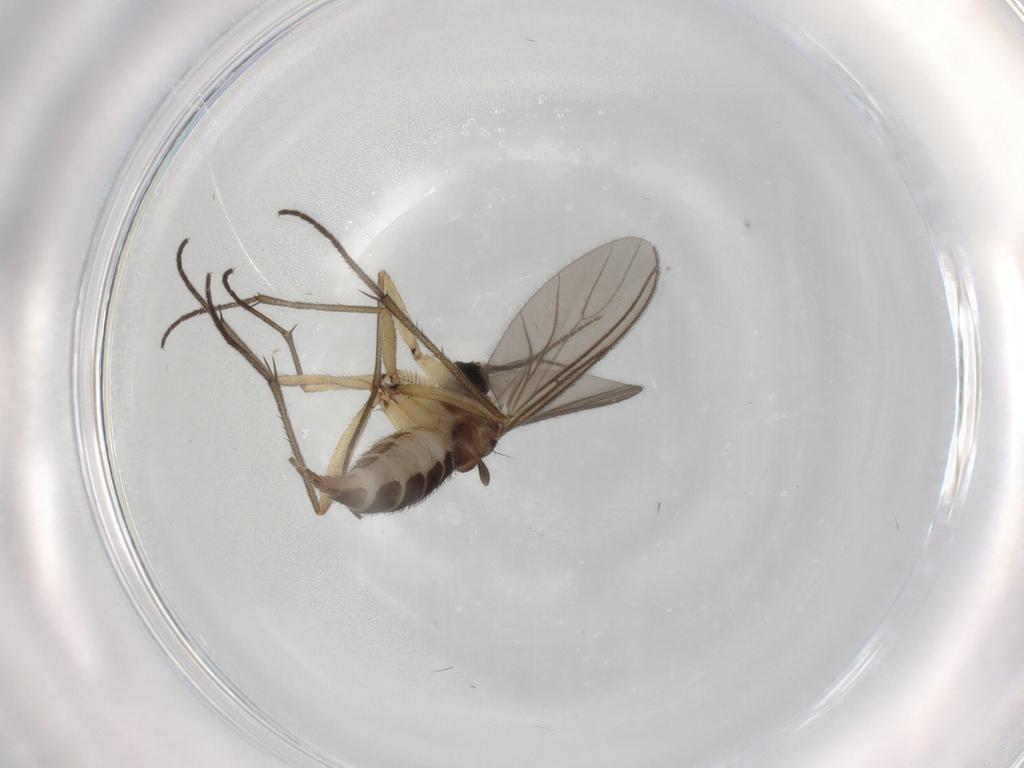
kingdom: Animalia
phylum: Arthropoda
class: Insecta
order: Diptera
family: Sciaridae
